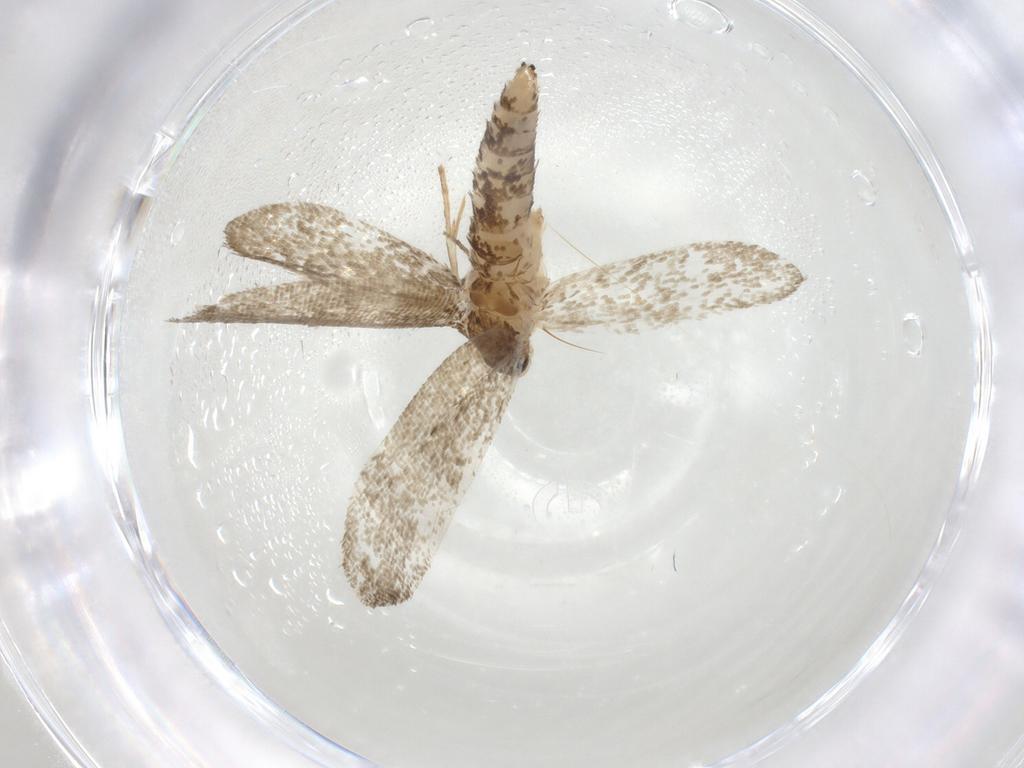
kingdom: Animalia
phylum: Arthropoda
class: Insecta
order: Lepidoptera
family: Crambidae
